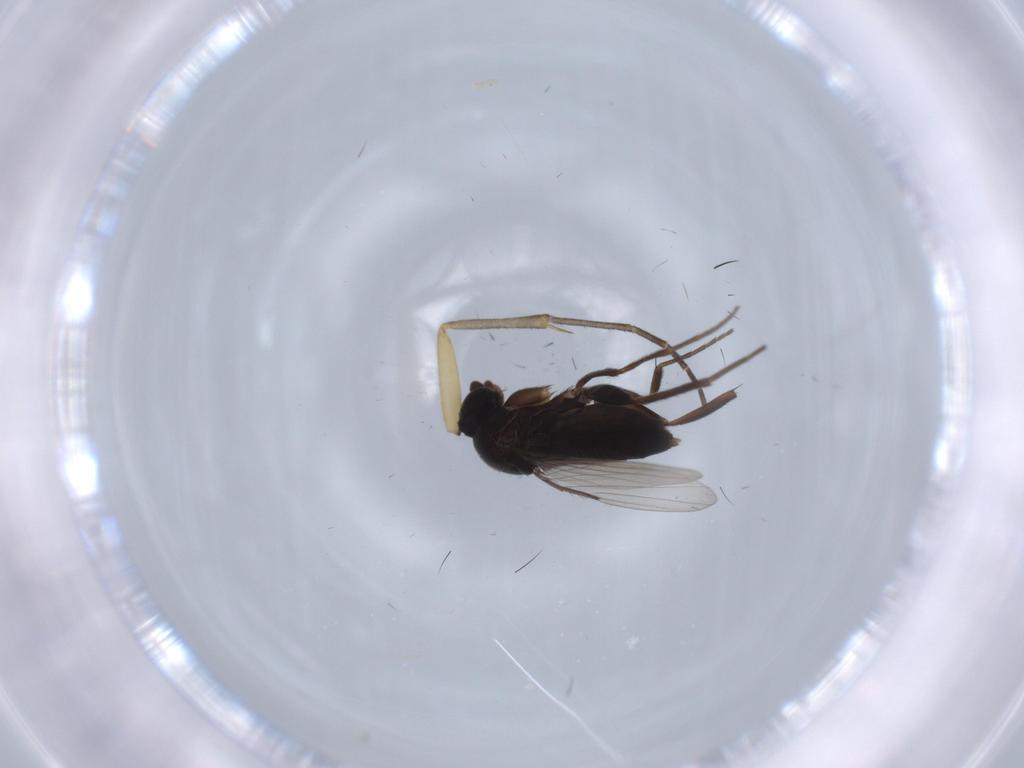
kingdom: Animalia
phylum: Arthropoda
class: Insecta
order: Diptera
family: Phoridae
